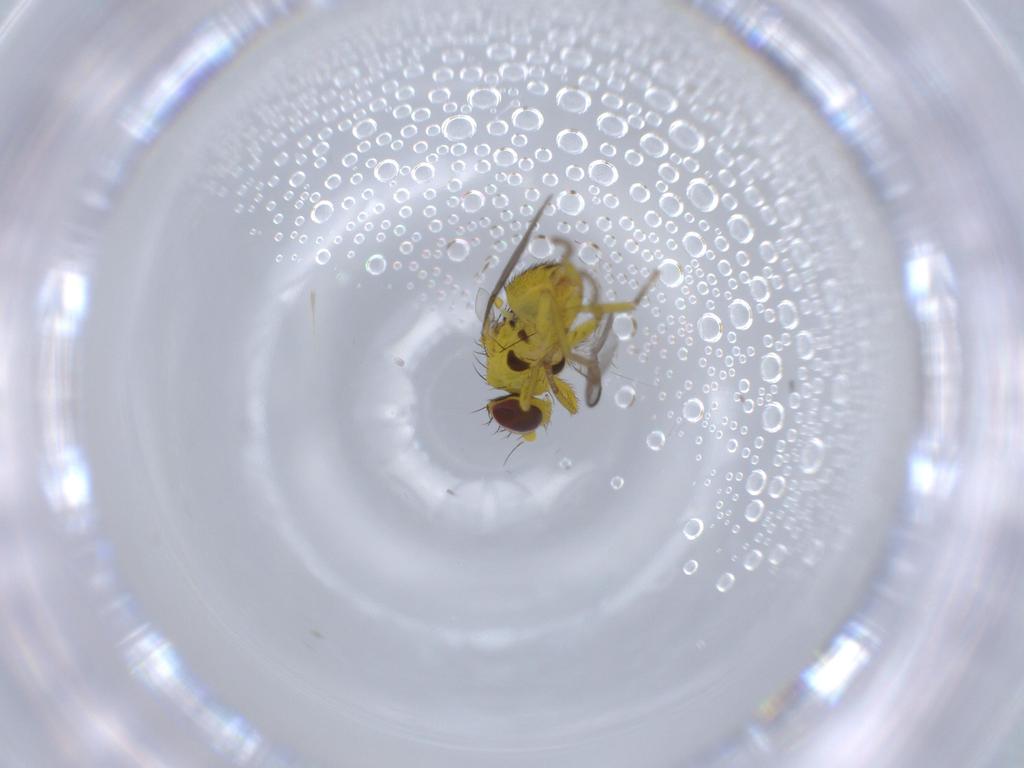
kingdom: Animalia
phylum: Arthropoda
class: Insecta
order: Diptera
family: Agromyzidae
